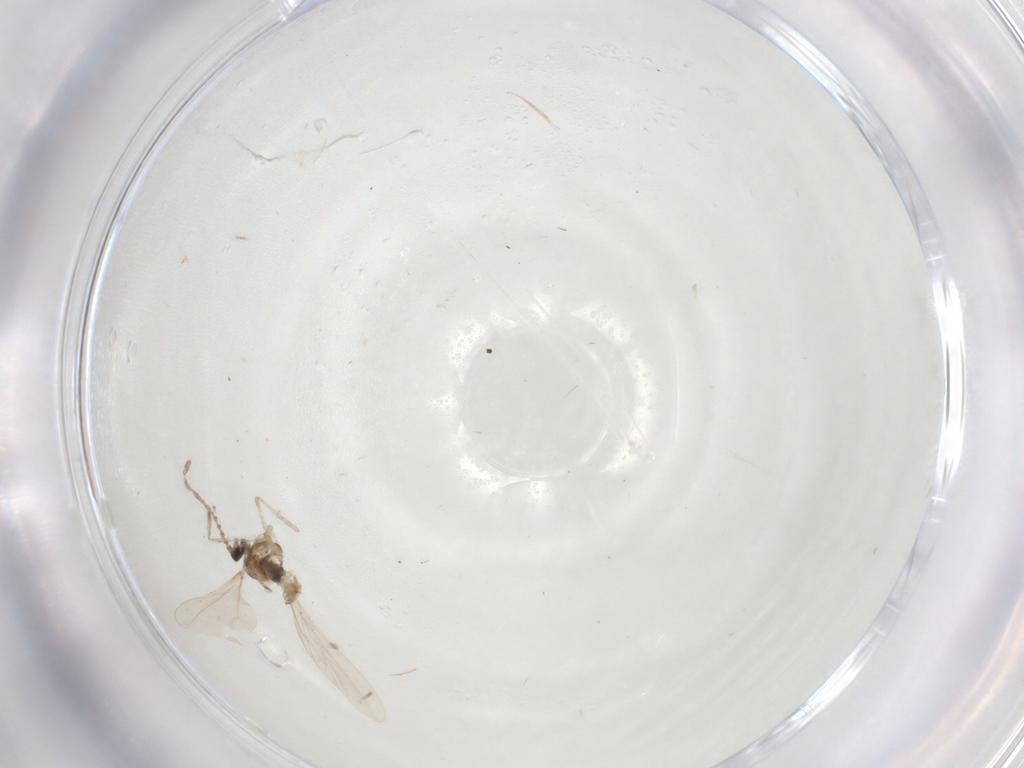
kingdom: Animalia
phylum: Arthropoda
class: Insecta
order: Diptera
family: Cecidomyiidae
